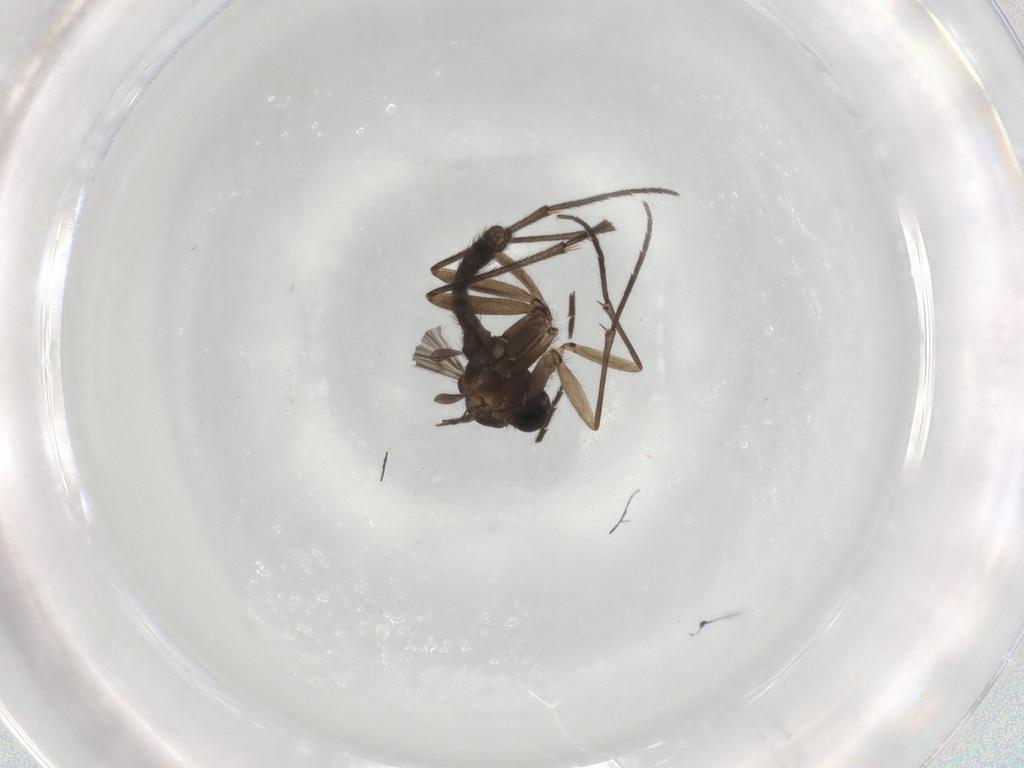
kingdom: Animalia
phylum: Arthropoda
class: Insecta
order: Diptera
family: Sciaridae
